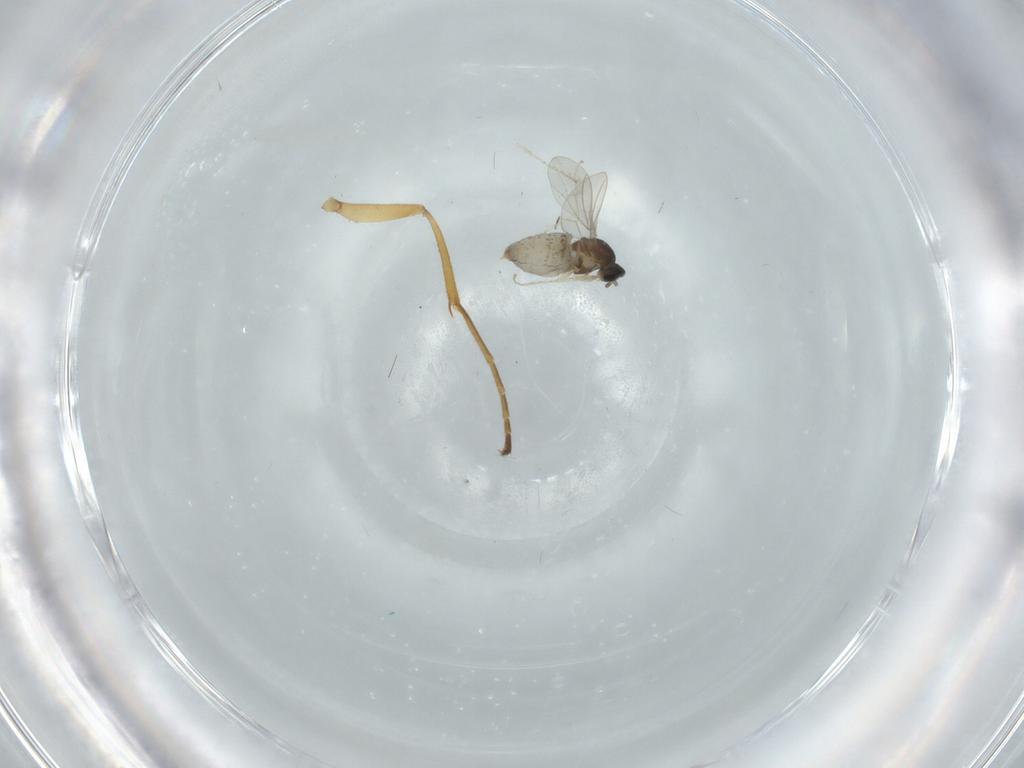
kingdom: Animalia
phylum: Arthropoda
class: Insecta
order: Diptera
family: Cecidomyiidae
